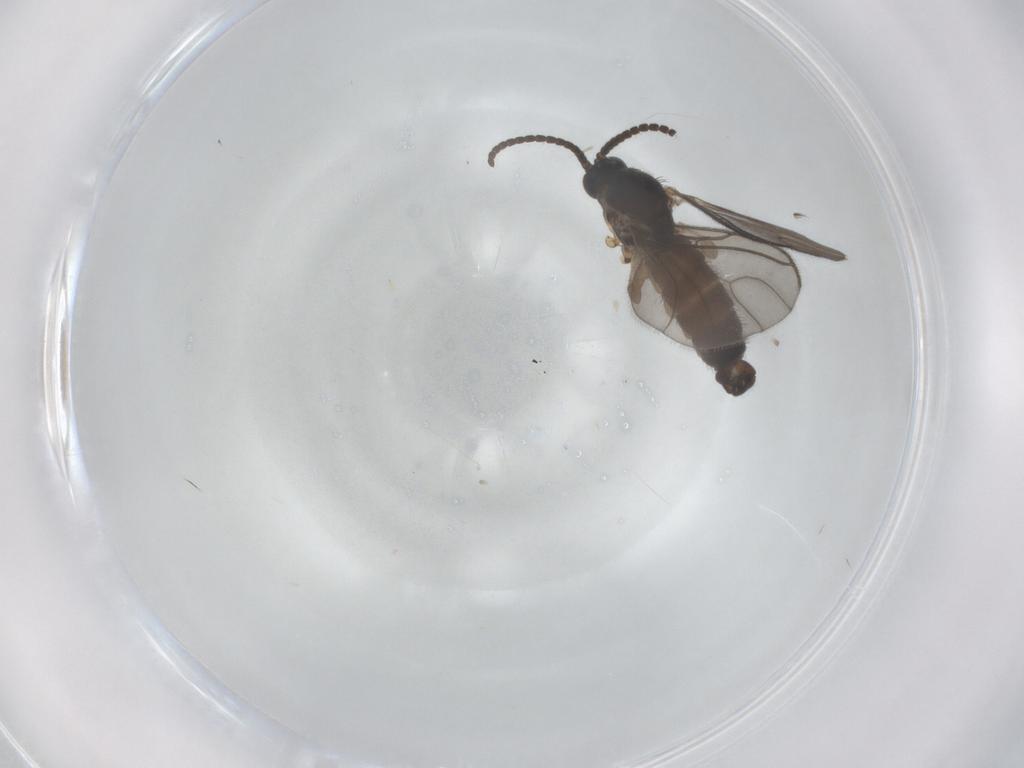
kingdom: Animalia
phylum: Arthropoda
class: Insecta
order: Diptera
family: Sciaridae
